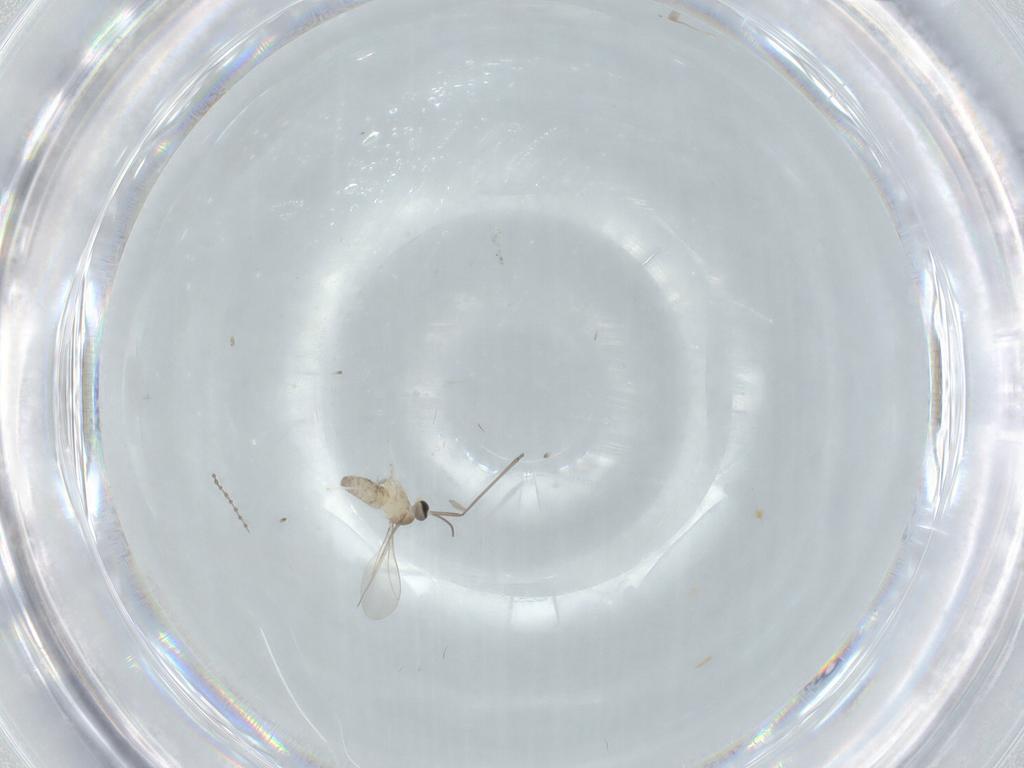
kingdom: Animalia
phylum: Arthropoda
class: Insecta
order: Diptera
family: Cecidomyiidae
